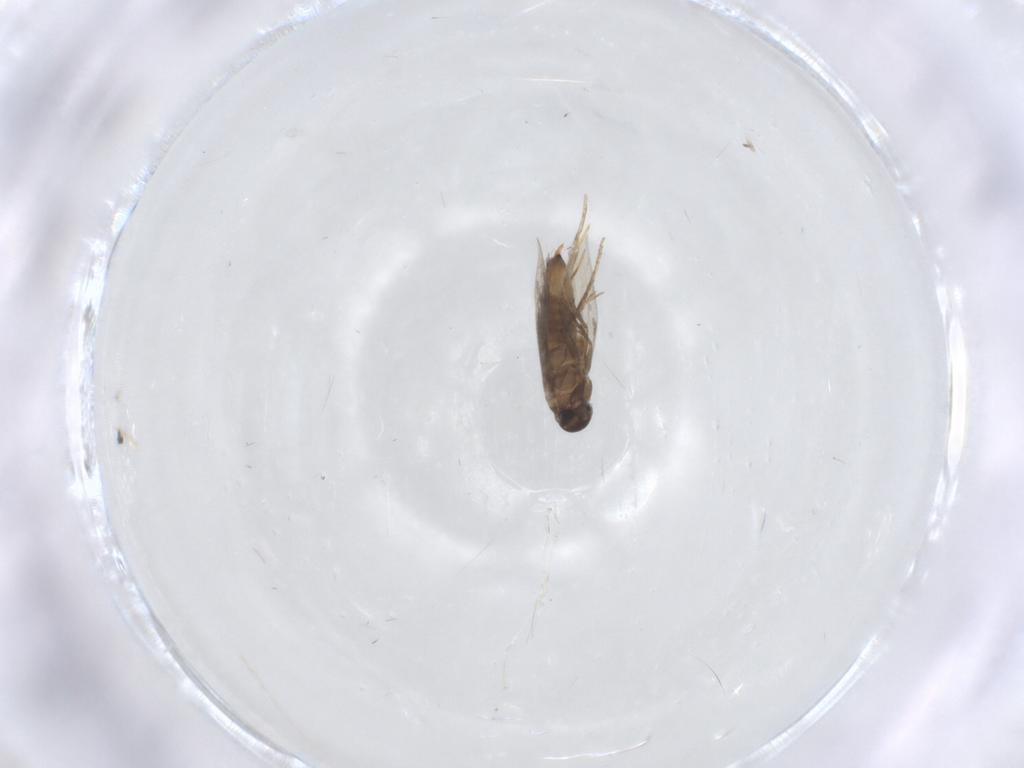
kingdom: Animalia
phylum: Arthropoda
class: Insecta
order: Lepidoptera
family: Heliozelidae
